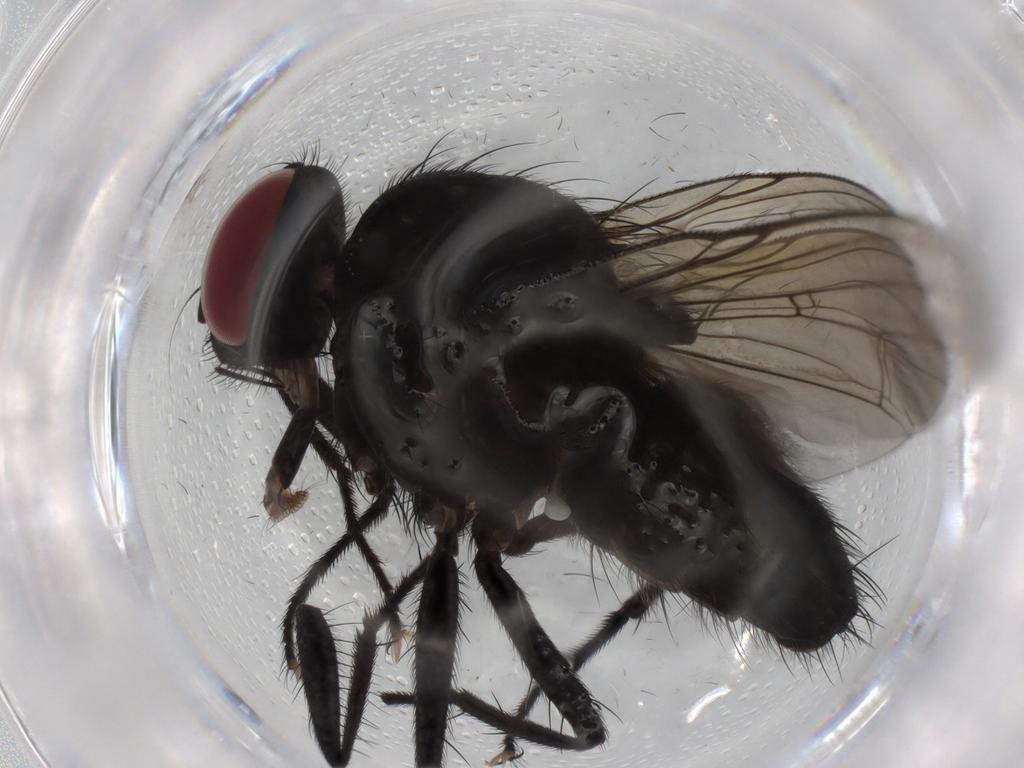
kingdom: Animalia
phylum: Arthropoda
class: Insecta
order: Diptera
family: Muscidae
